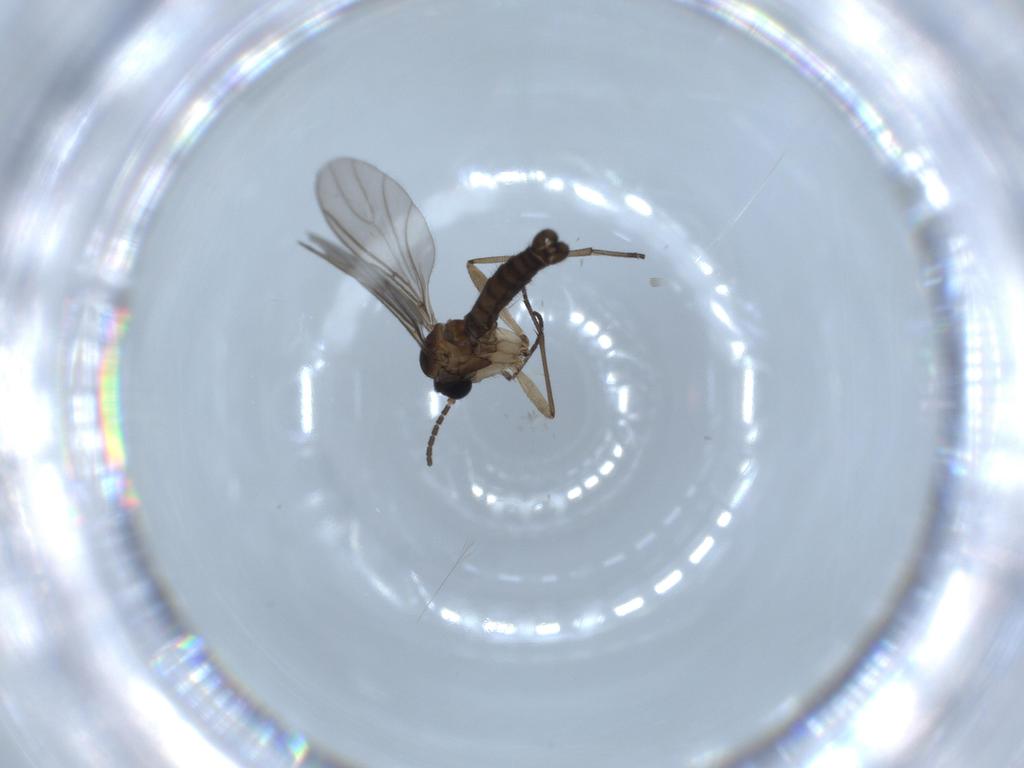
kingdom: Animalia
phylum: Arthropoda
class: Insecta
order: Diptera
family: Sciaridae
